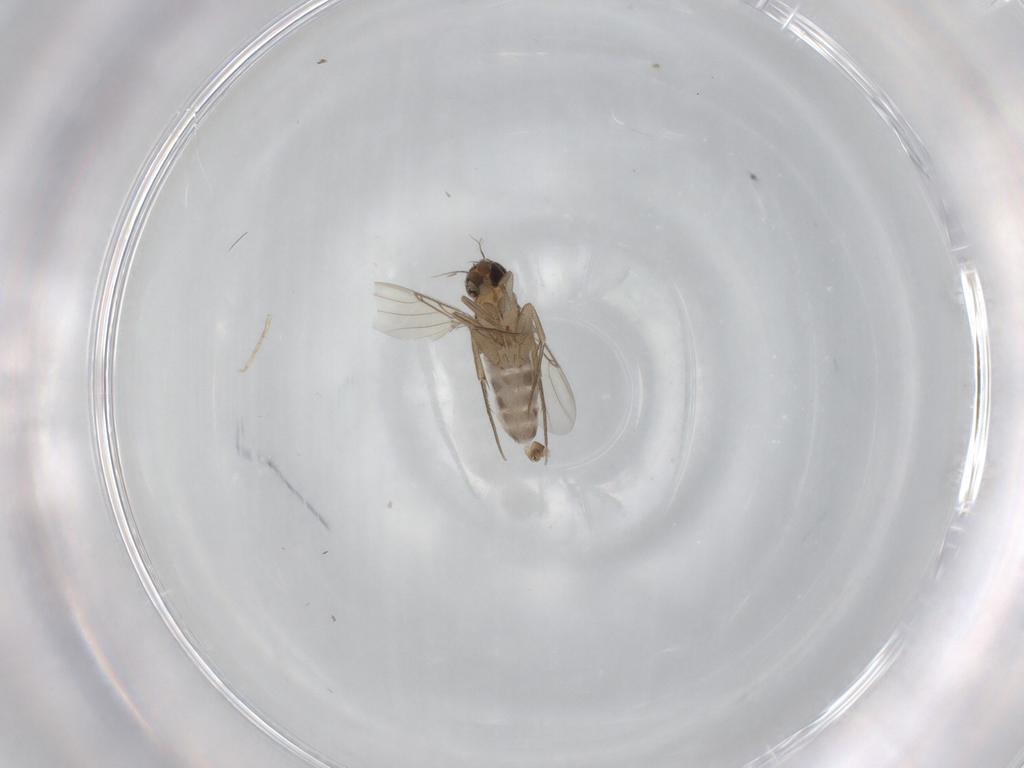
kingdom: Animalia
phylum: Arthropoda
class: Insecta
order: Diptera
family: Phoridae
